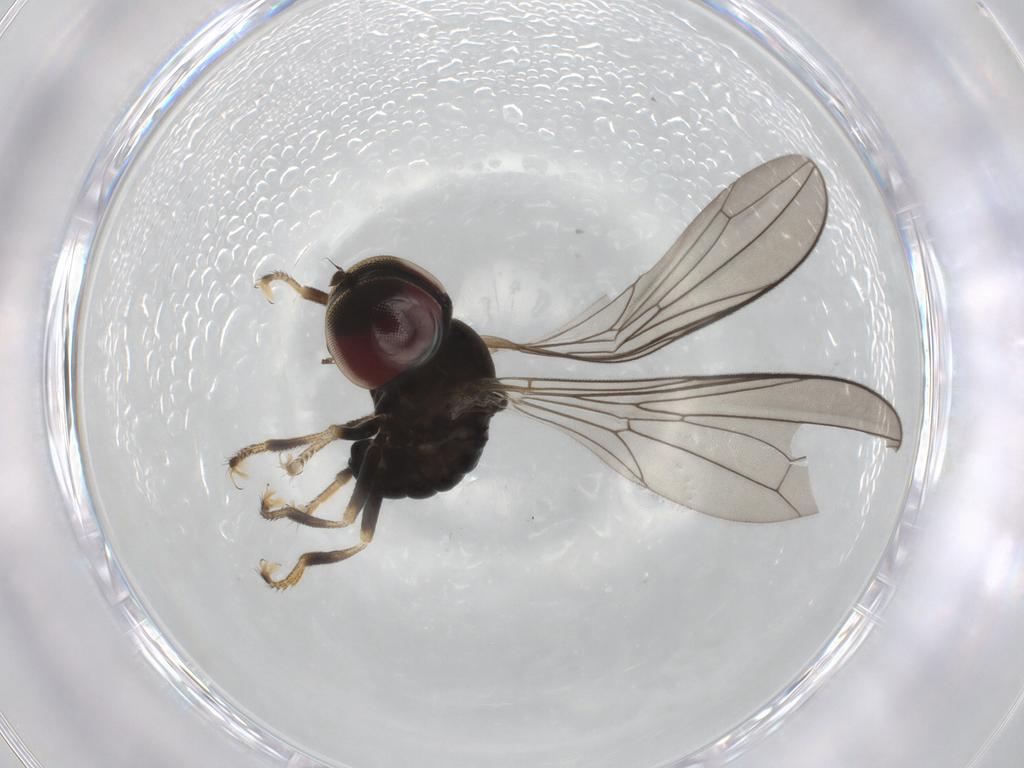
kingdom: Animalia
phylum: Arthropoda
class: Insecta
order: Diptera
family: Pipunculidae
